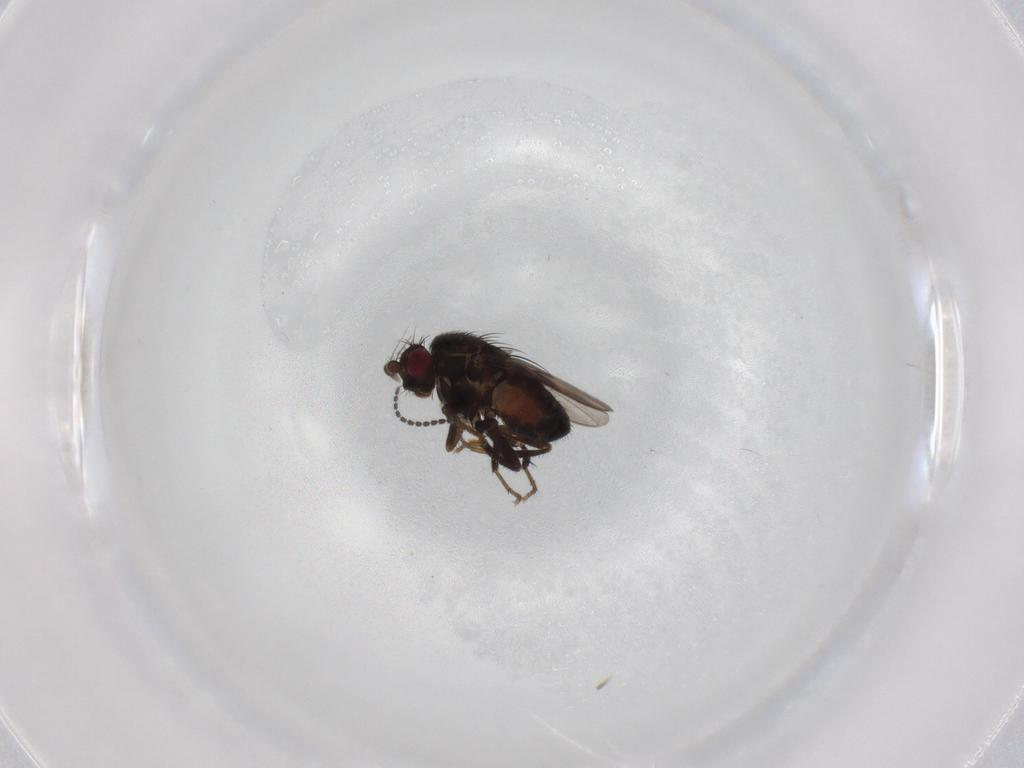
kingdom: Animalia
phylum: Arthropoda
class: Insecta
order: Diptera
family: Sphaeroceridae
